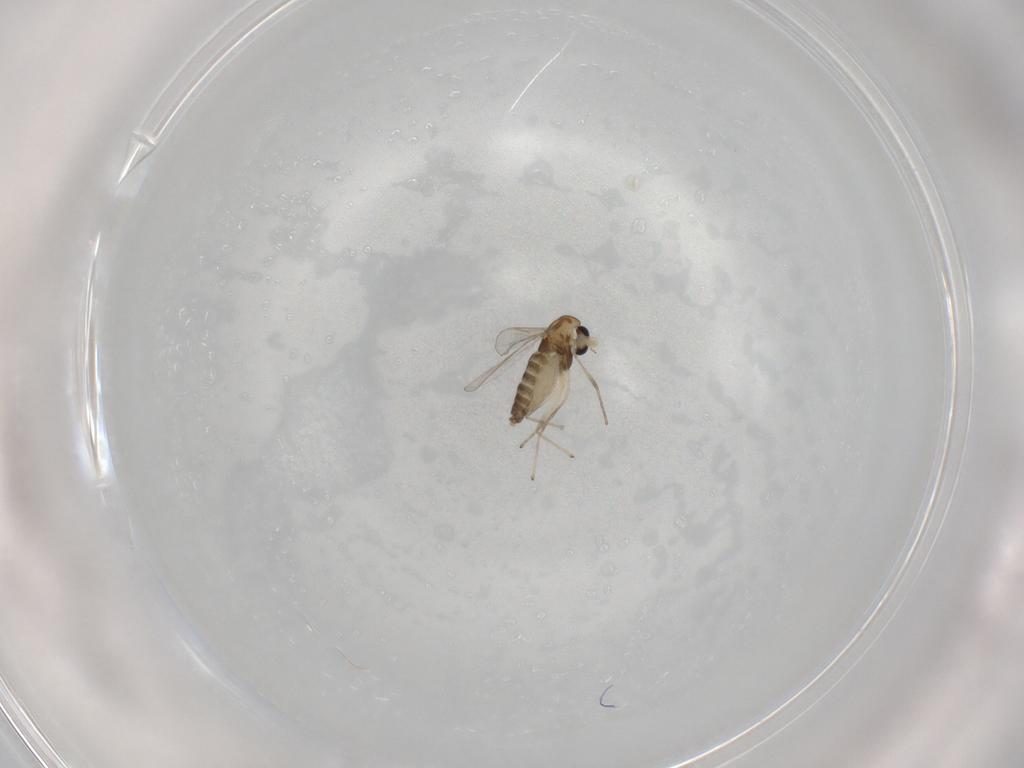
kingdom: Animalia
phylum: Arthropoda
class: Insecta
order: Diptera
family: Chironomidae
